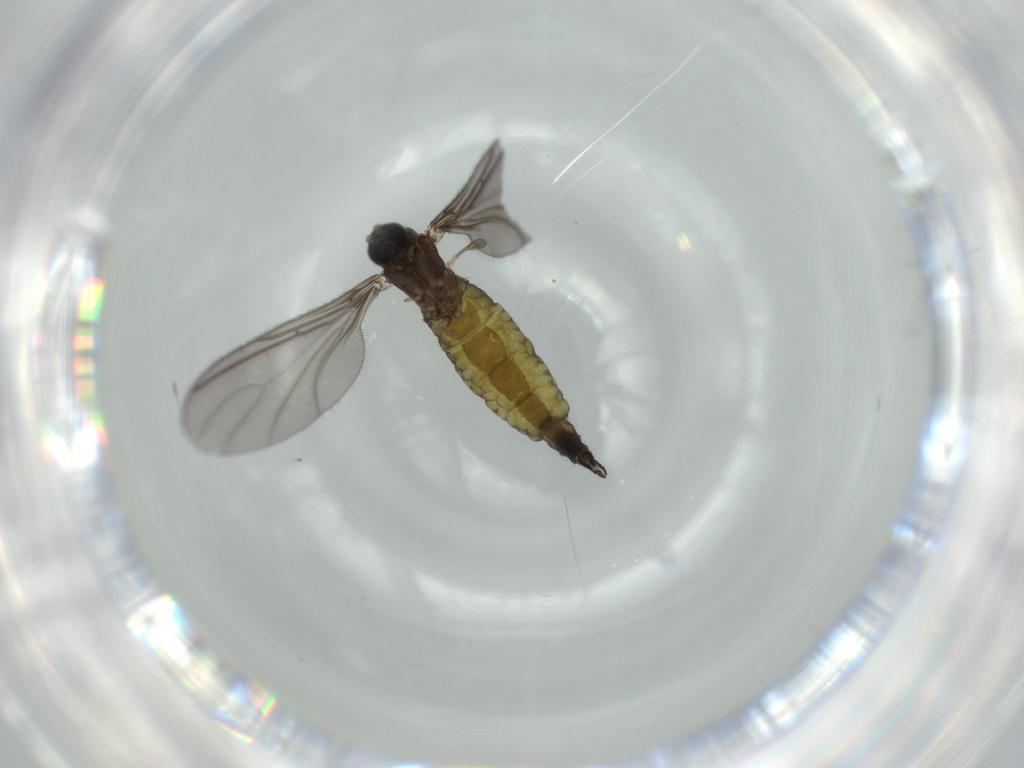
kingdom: Animalia
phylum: Arthropoda
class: Insecta
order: Diptera
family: Sciaridae
